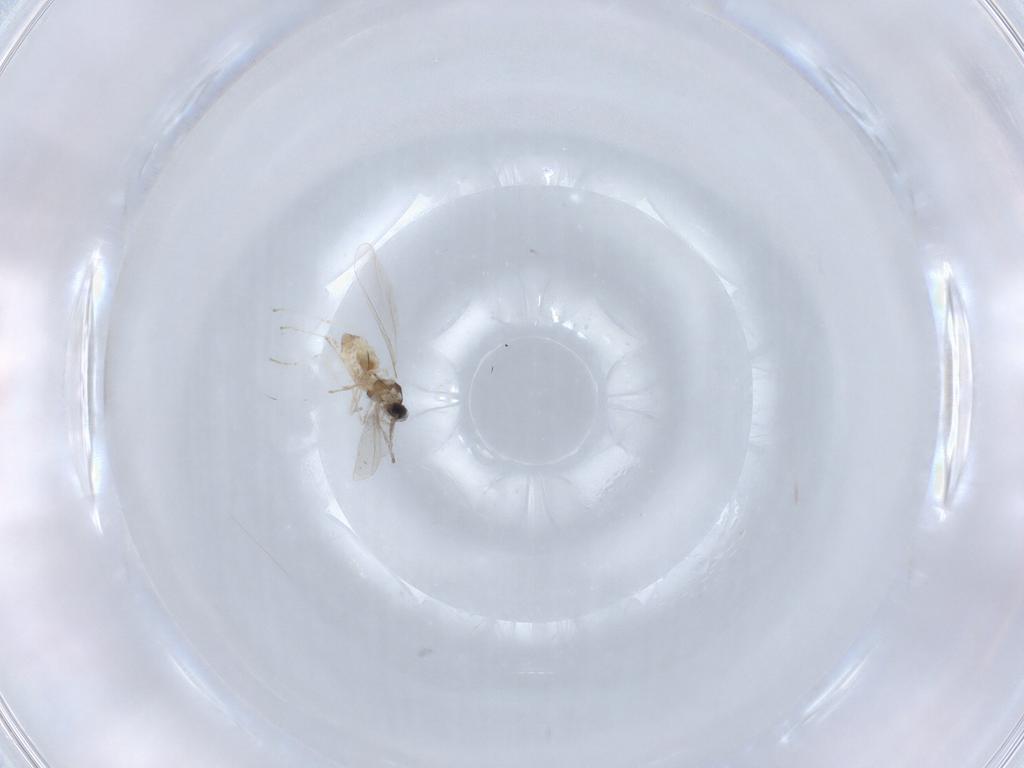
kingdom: Animalia
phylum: Arthropoda
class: Insecta
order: Diptera
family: Cecidomyiidae
